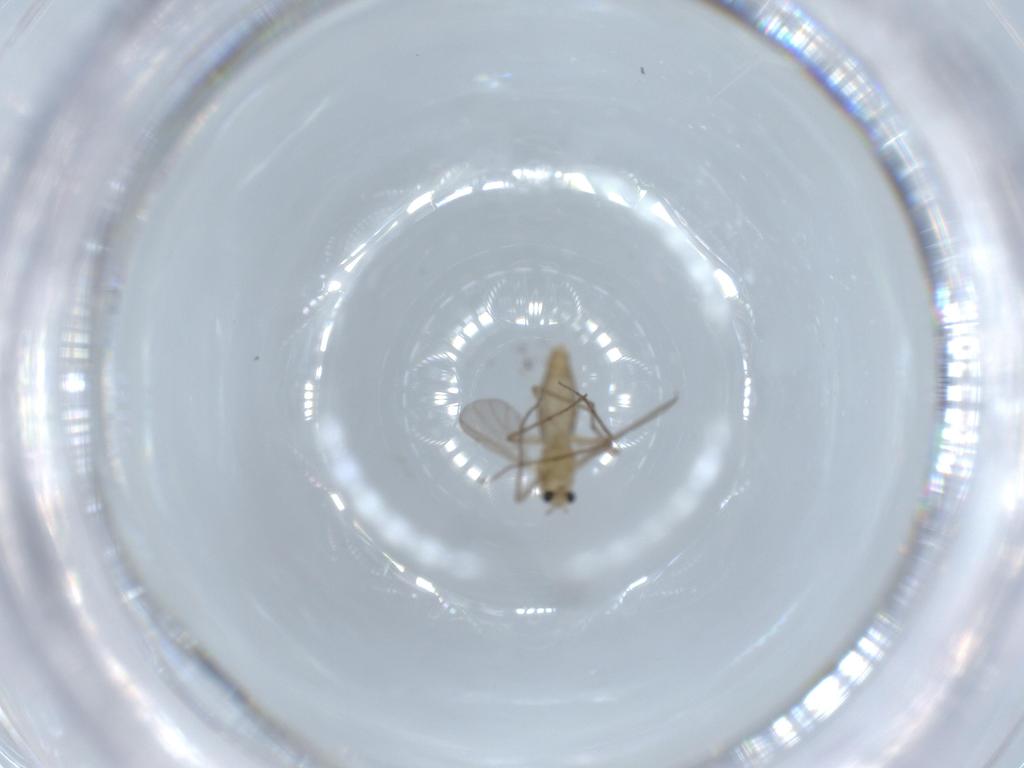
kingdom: Animalia
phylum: Arthropoda
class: Insecta
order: Diptera
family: Chironomidae
